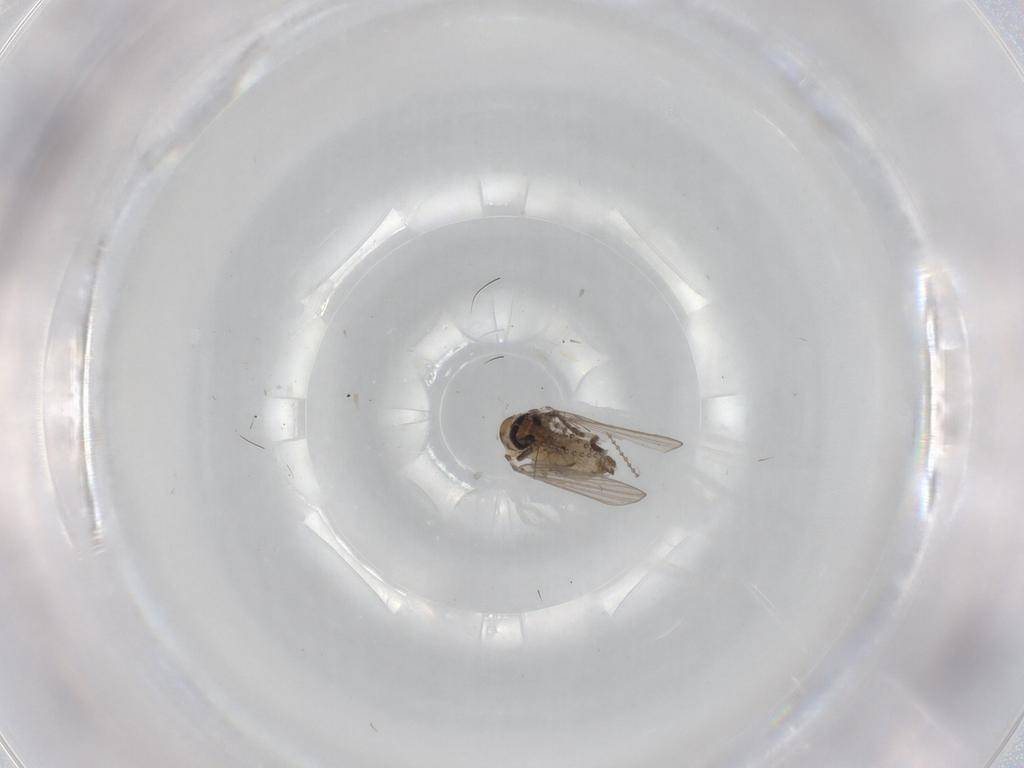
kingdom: Animalia
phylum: Arthropoda
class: Insecta
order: Diptera
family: Psychodidae
